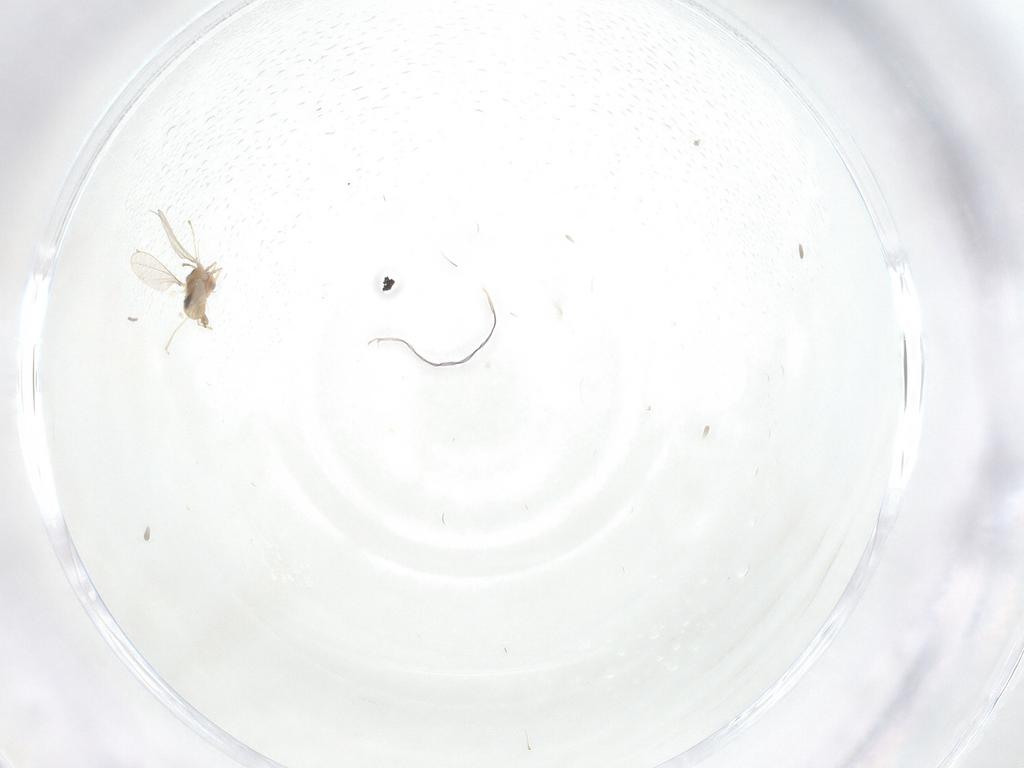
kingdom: Animalia
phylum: Arthropoda
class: Insecta
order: Diptera
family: Cecidomyiidae
